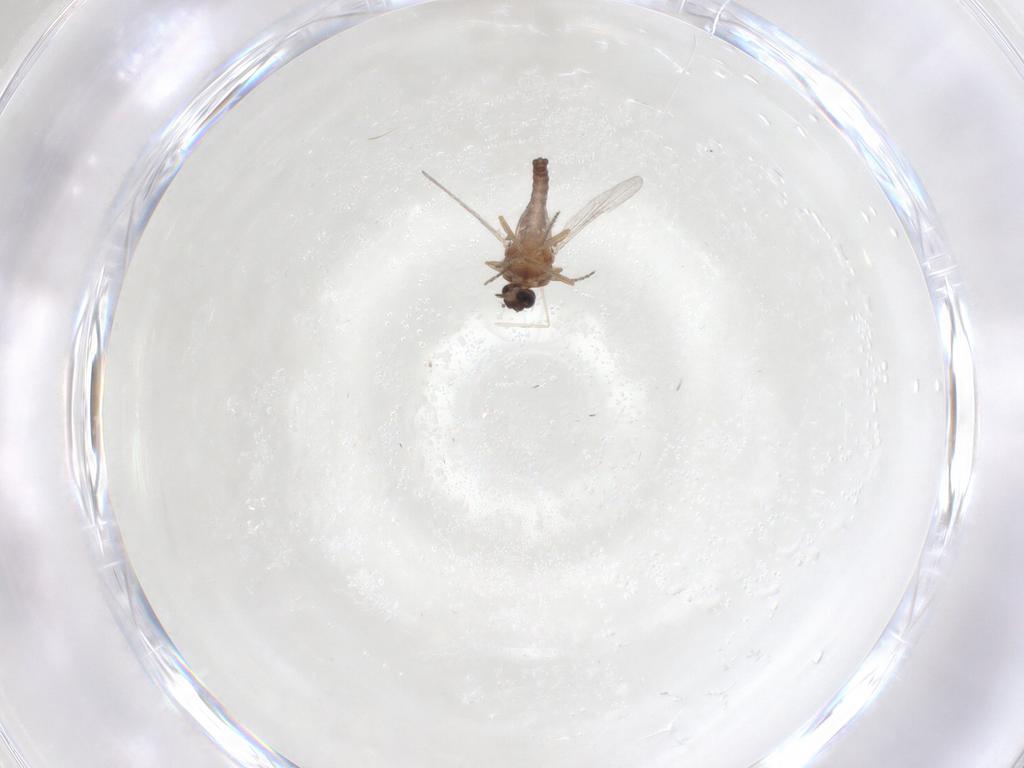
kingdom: Animalia
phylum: Arthropoda
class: Insecta
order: Diptera
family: Ceratopogonidae
